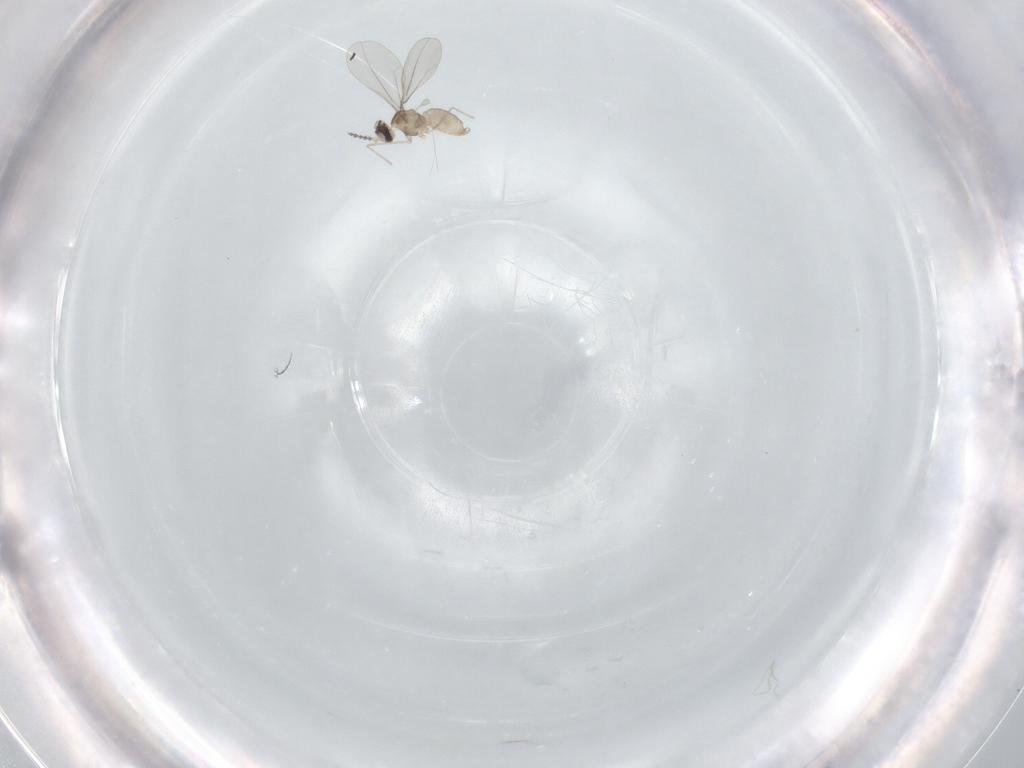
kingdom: Animalia
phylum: Arthropoda
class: Insecta
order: Diptera
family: Cecidomyiidae
